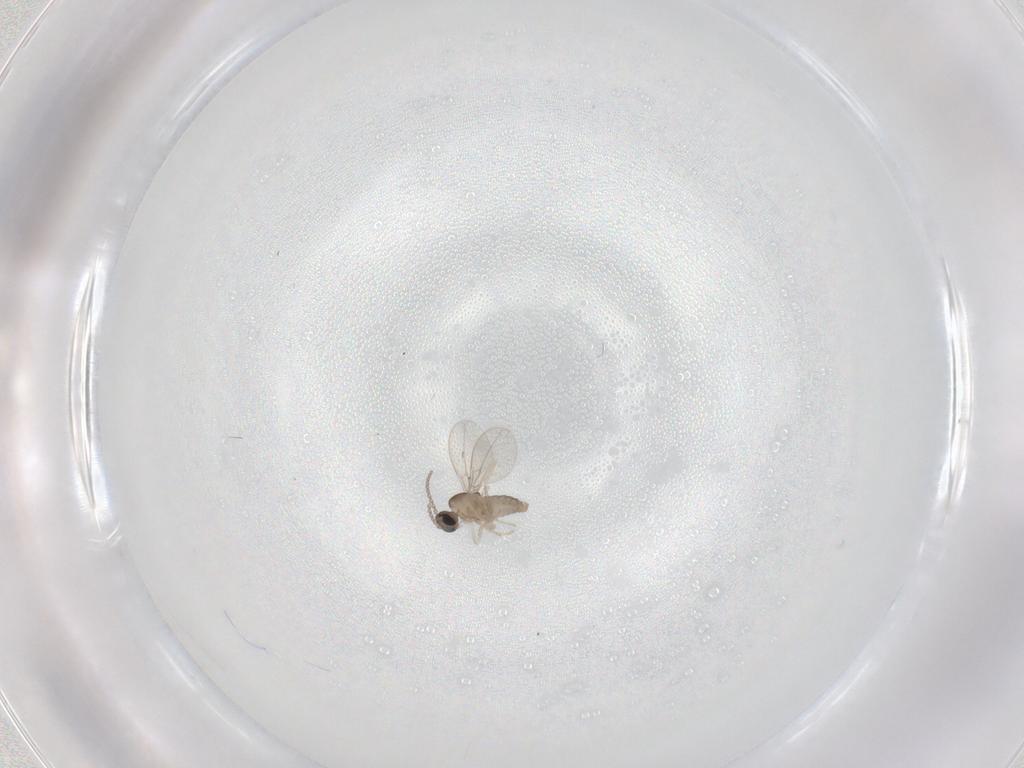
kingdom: Animalia
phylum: Arthropoda
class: Insecta
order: Diptera
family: Cecidomyiidae
